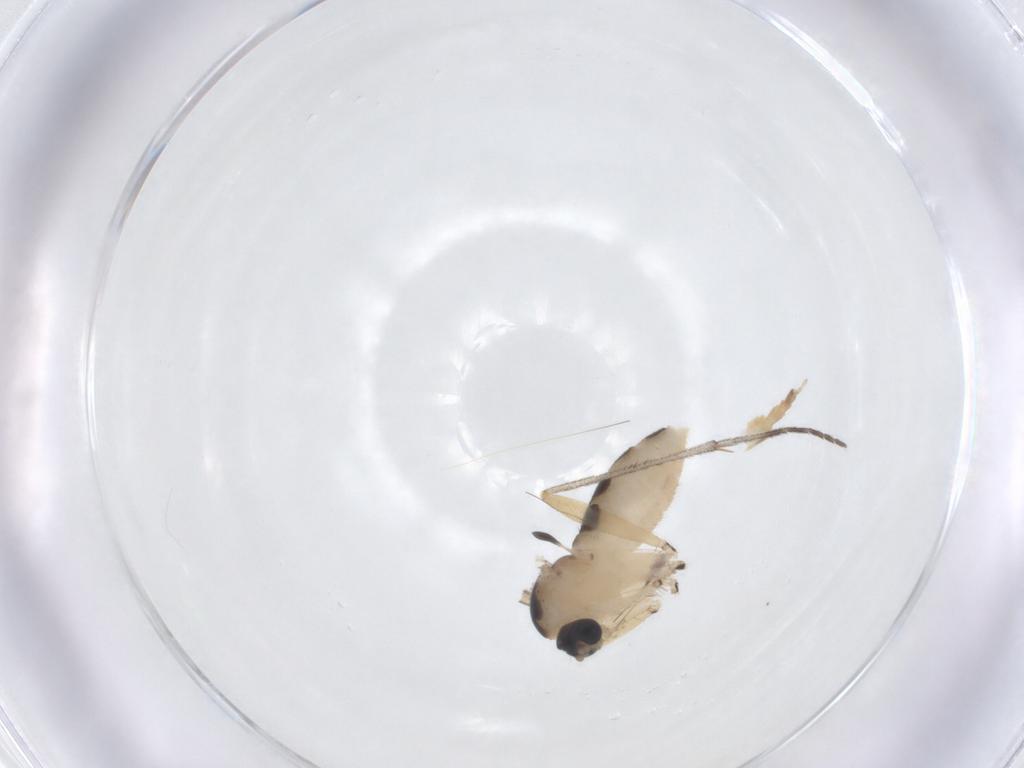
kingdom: Animalia
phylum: Arthropoda
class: Insecta
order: Diptera
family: Sciaridae
